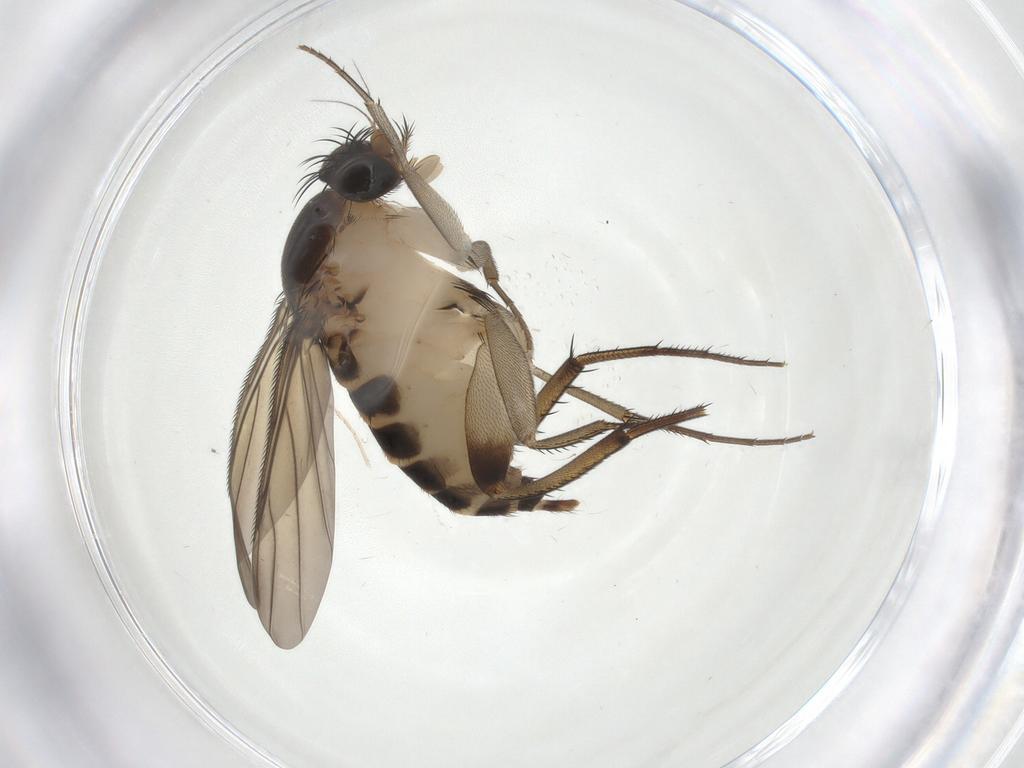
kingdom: Animalia
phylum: Arthropoda
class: Insecta
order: Diptera
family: Phoridae
